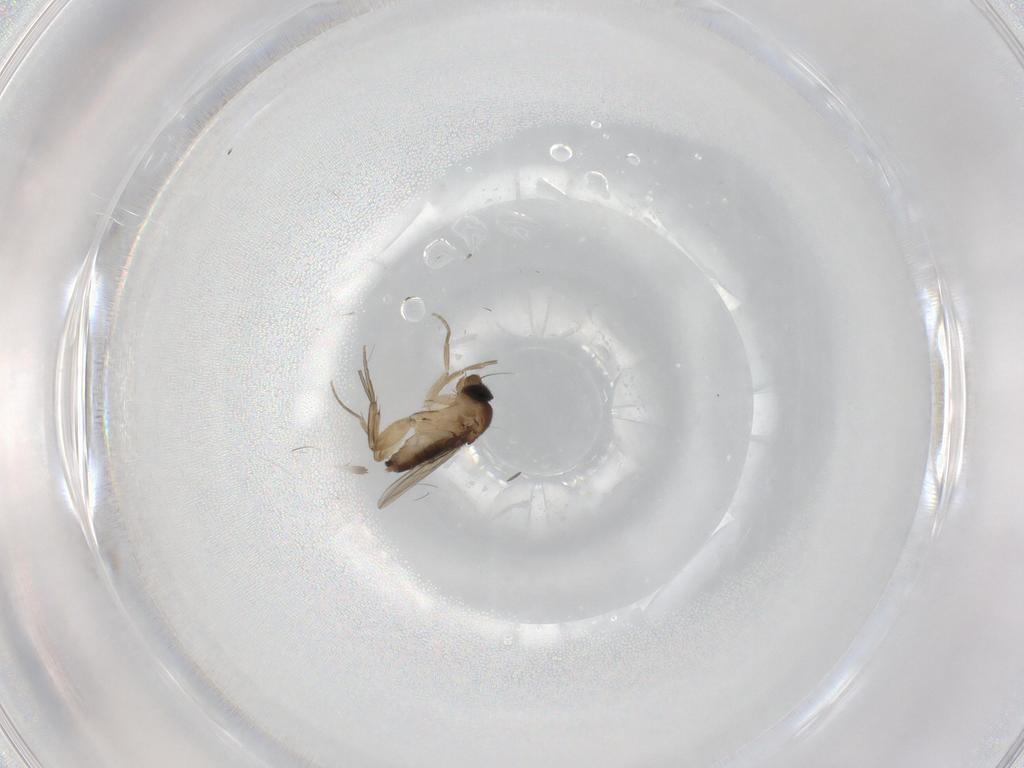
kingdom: Animalia
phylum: Arthropoda
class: Insecta
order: Diptera
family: Phoridae
